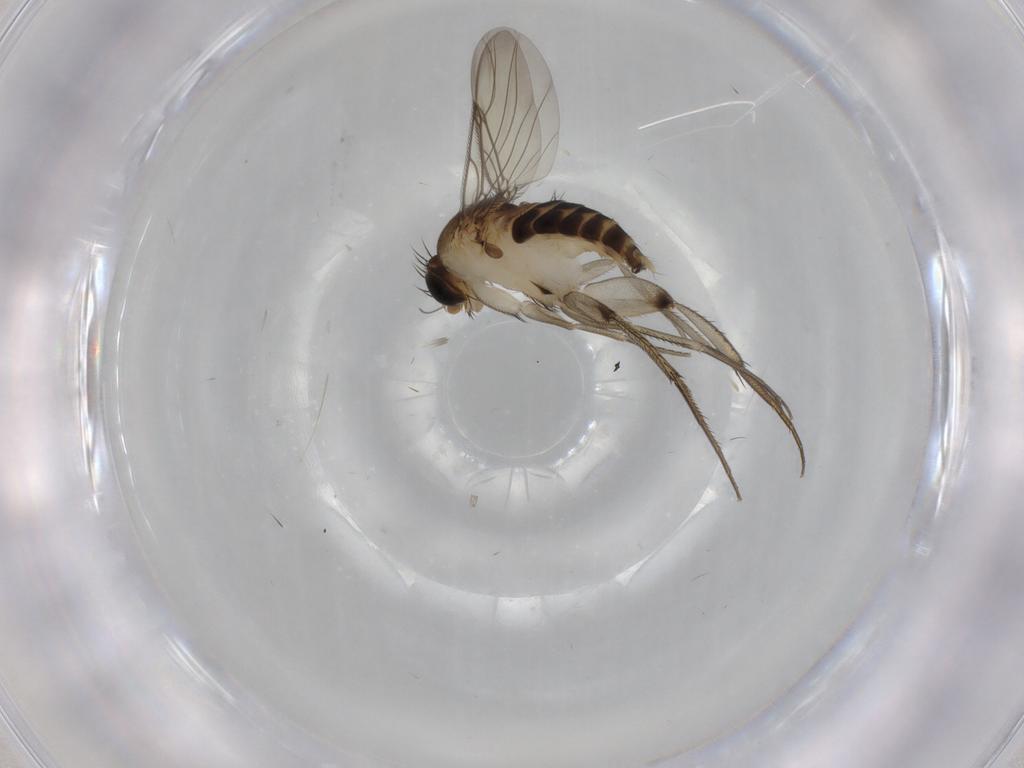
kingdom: Animalia
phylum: Arthropoda
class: Insecta
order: Diptera
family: Phoridae
